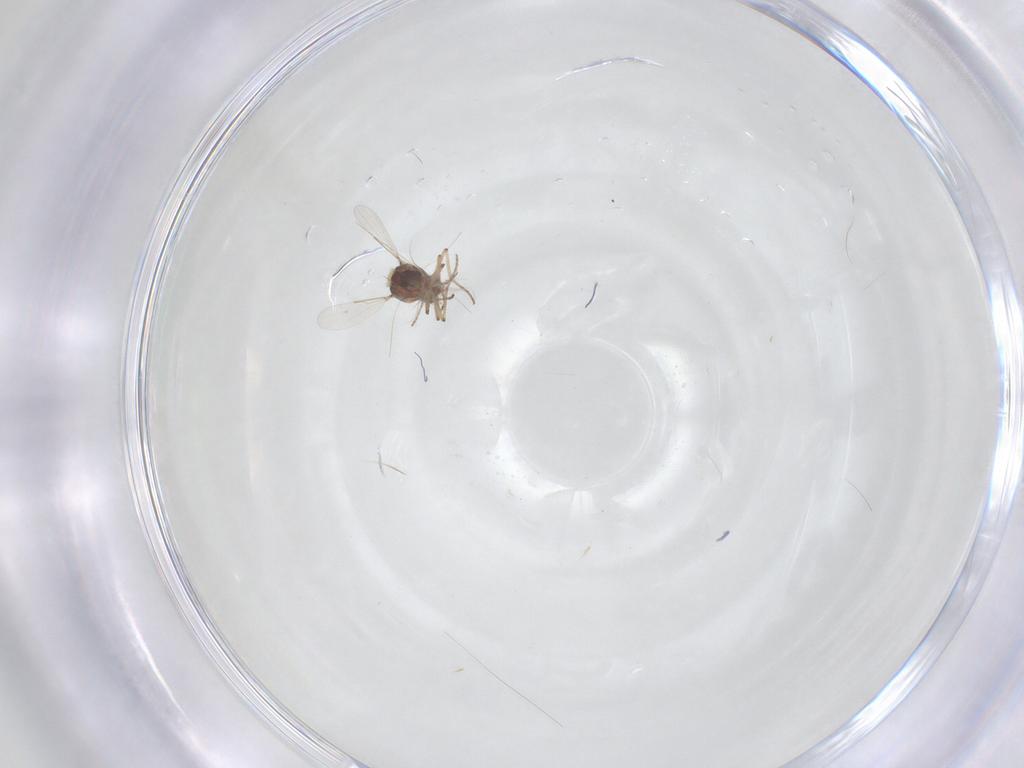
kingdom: Animalia
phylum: Arthropoda
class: Insecta
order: Diptera
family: Ceratopogonidae
